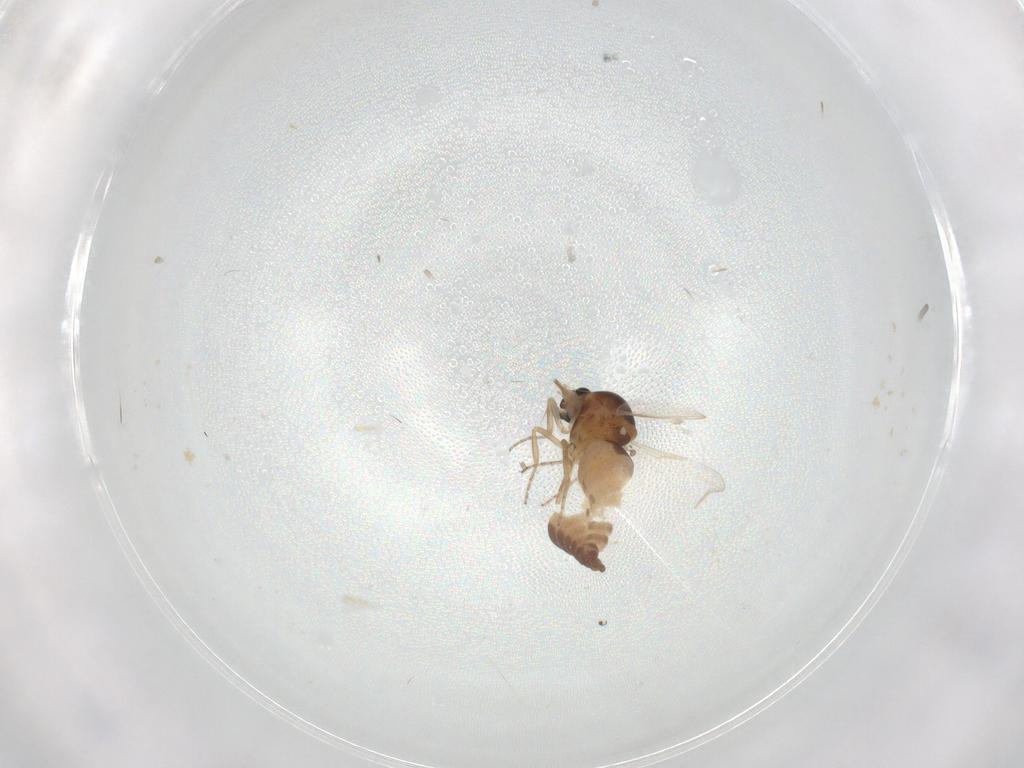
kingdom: Animalia
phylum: Arthropoda
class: Insecta
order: Diptera
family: Ceratopogonidae
